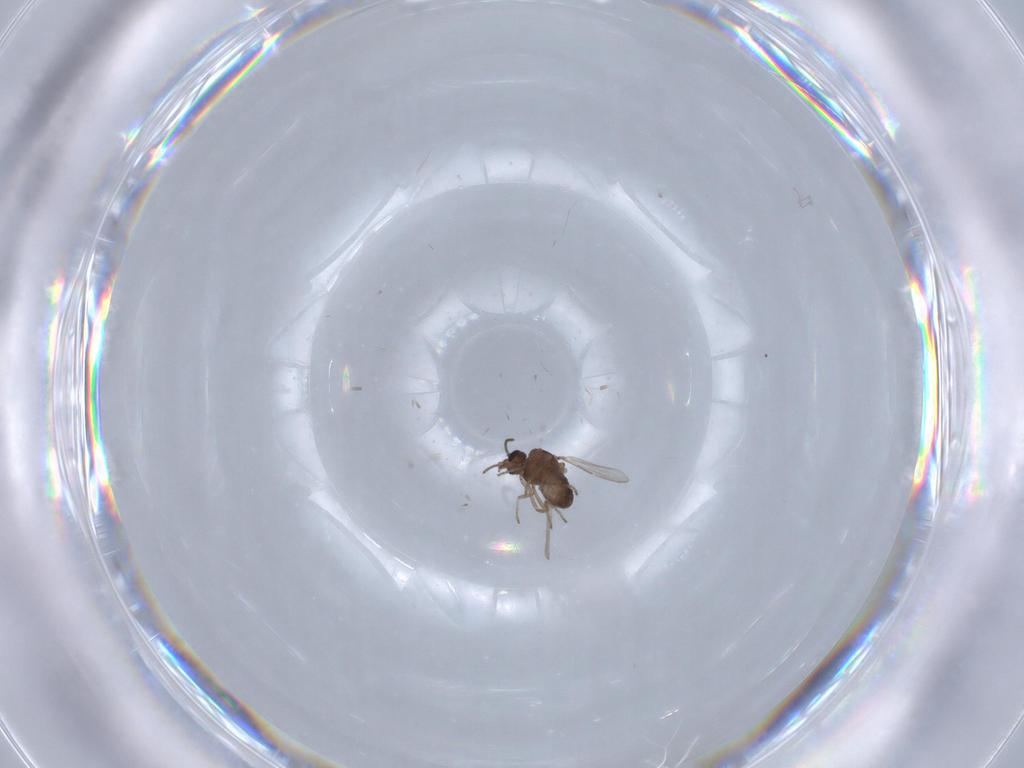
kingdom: Animalia
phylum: Arthropoda
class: Insecta
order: Diptera
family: Ceratopogonidae
